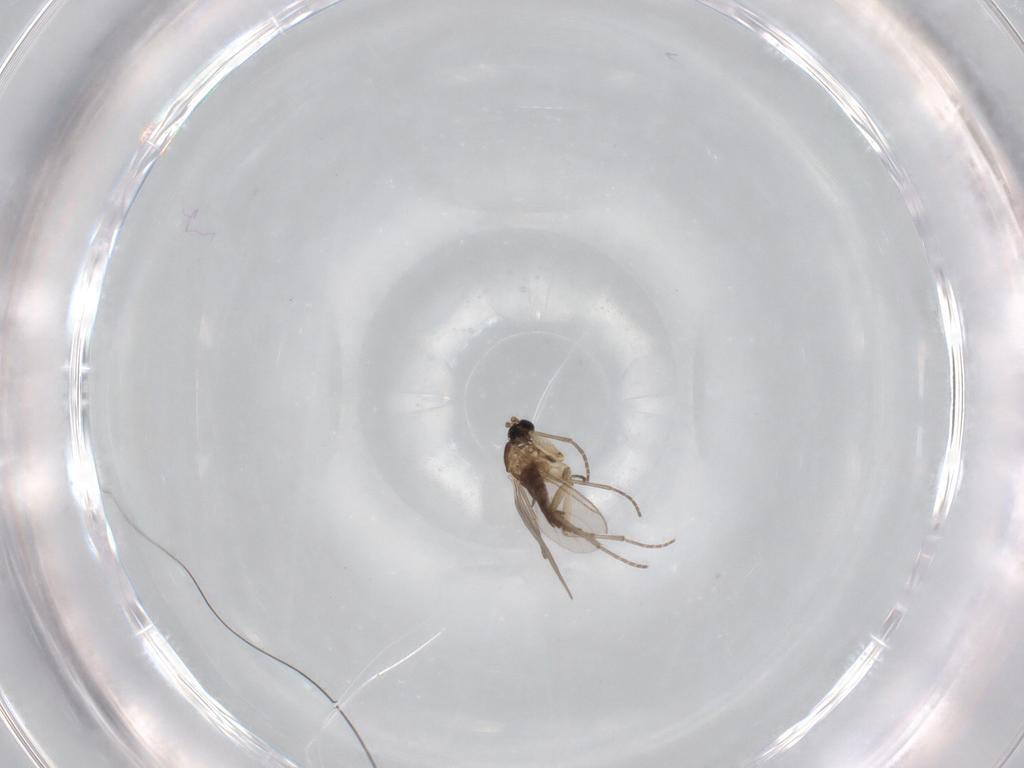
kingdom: Animalia
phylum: Arthropoda
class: Insecta
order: Diptera
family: Sciaridae
